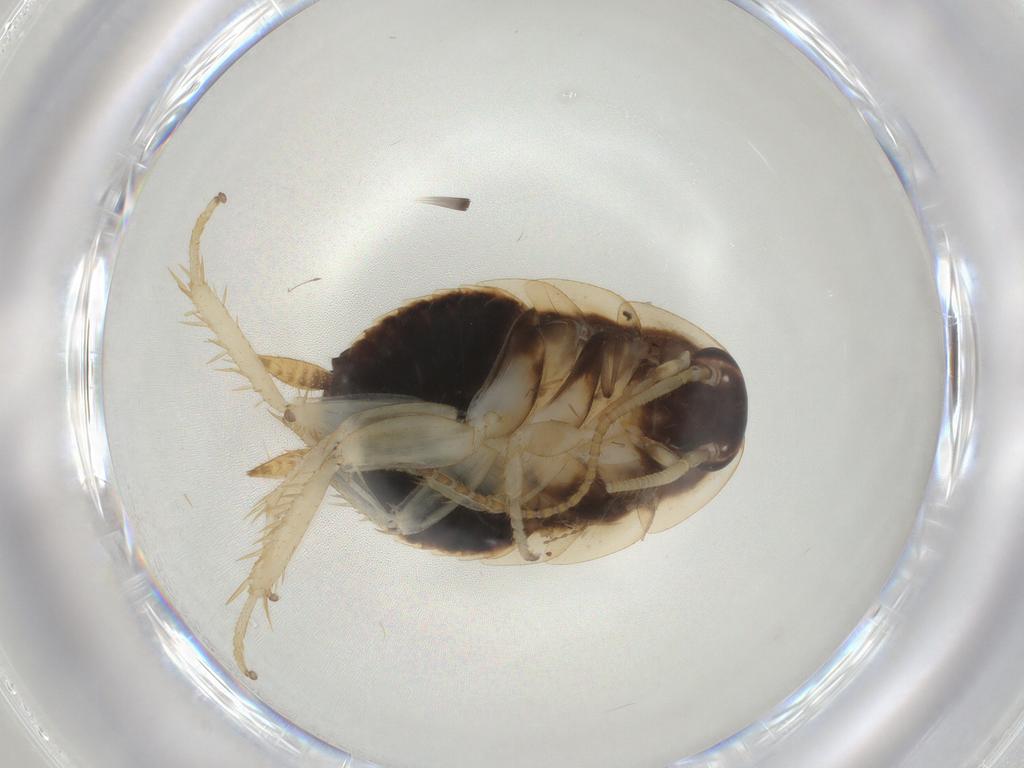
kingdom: Animalia
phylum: Arthropoda
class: Insecta
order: Blattodea
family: Ectobiidae
